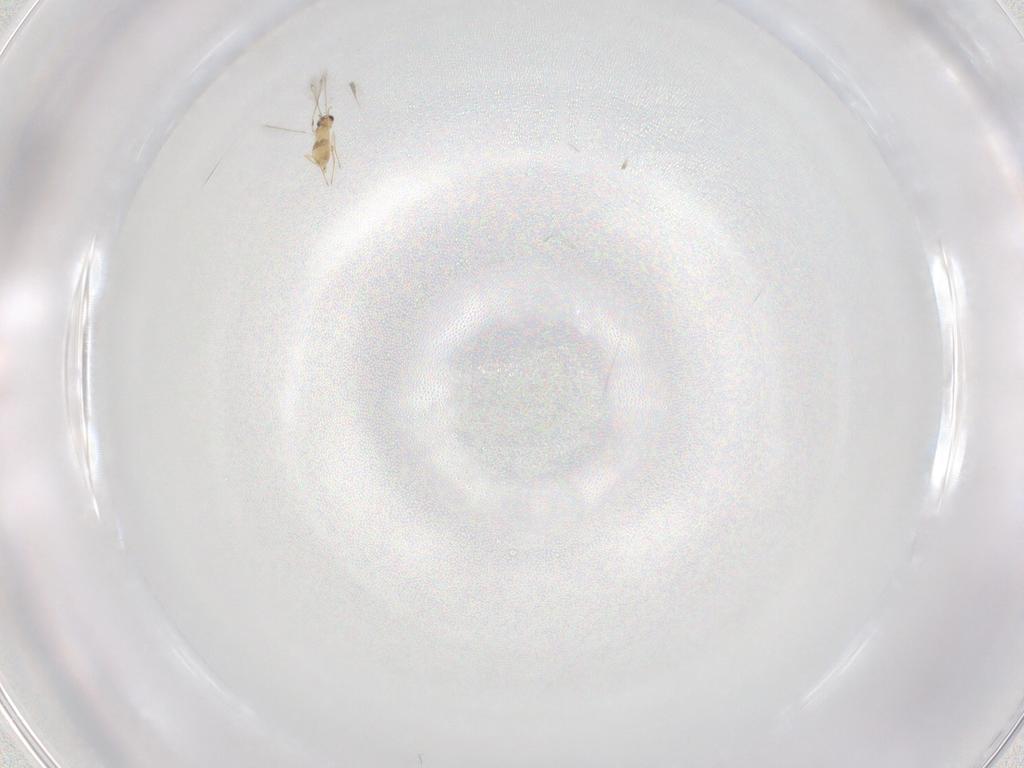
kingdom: Animalia
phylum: Arthropoda
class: Insecta
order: Hymenoptera
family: Mymaridae
